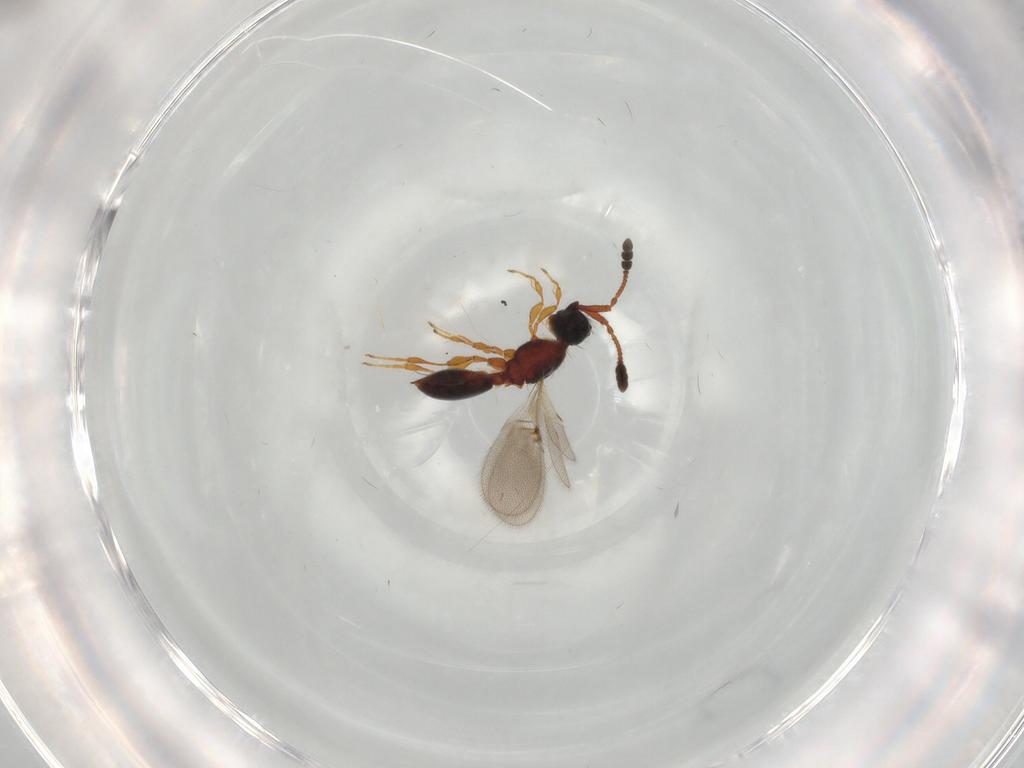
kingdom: Animalia
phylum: Arthropoda
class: Insecta
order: Hymenoptera
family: Diapriidae
